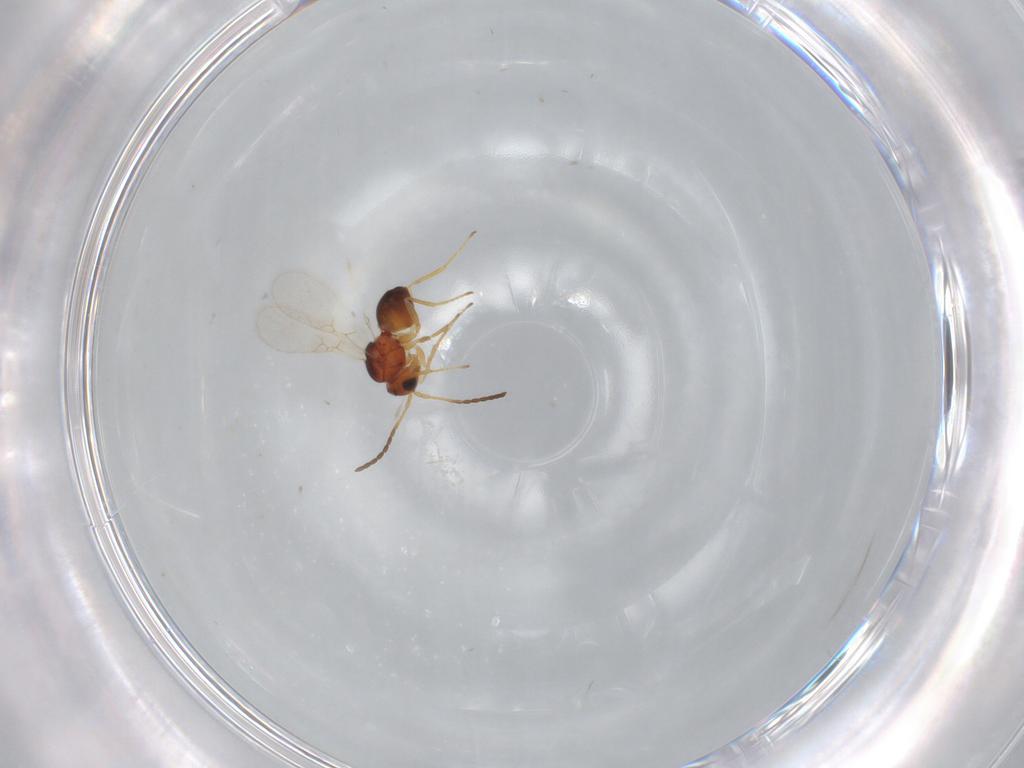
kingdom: Animalia
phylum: Arthropoda
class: Insecta
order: Hymenoptera
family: Figitidae
